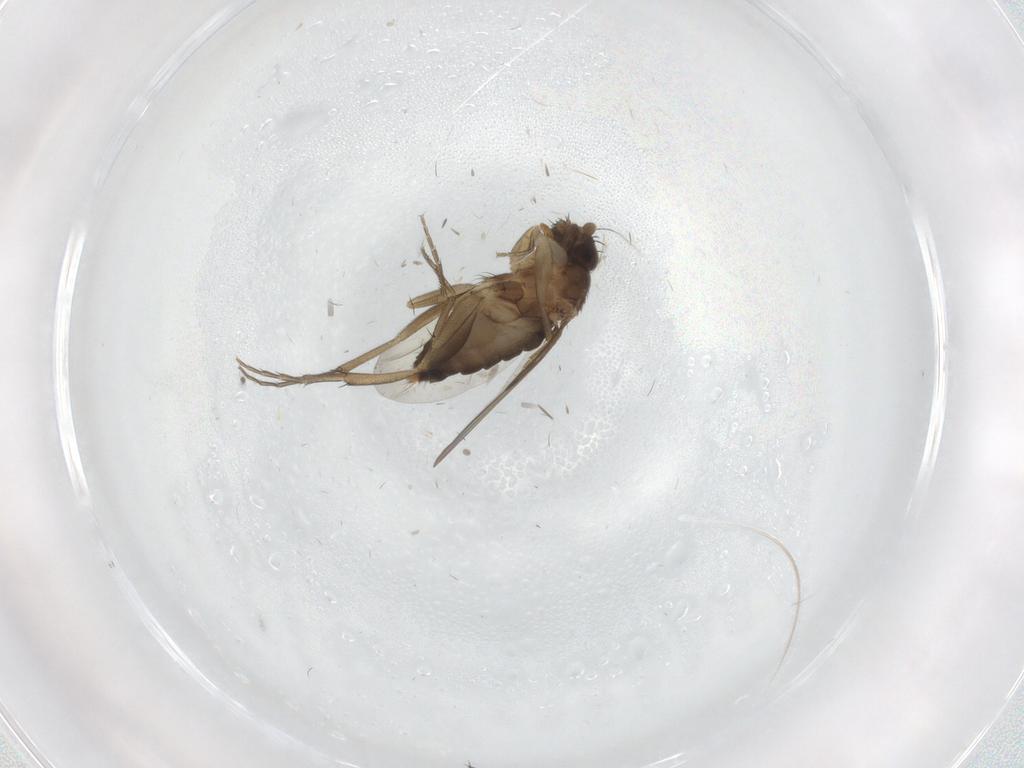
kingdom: Animalia
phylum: Arthropoda
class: Insecta
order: Diptera
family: Phoridae
